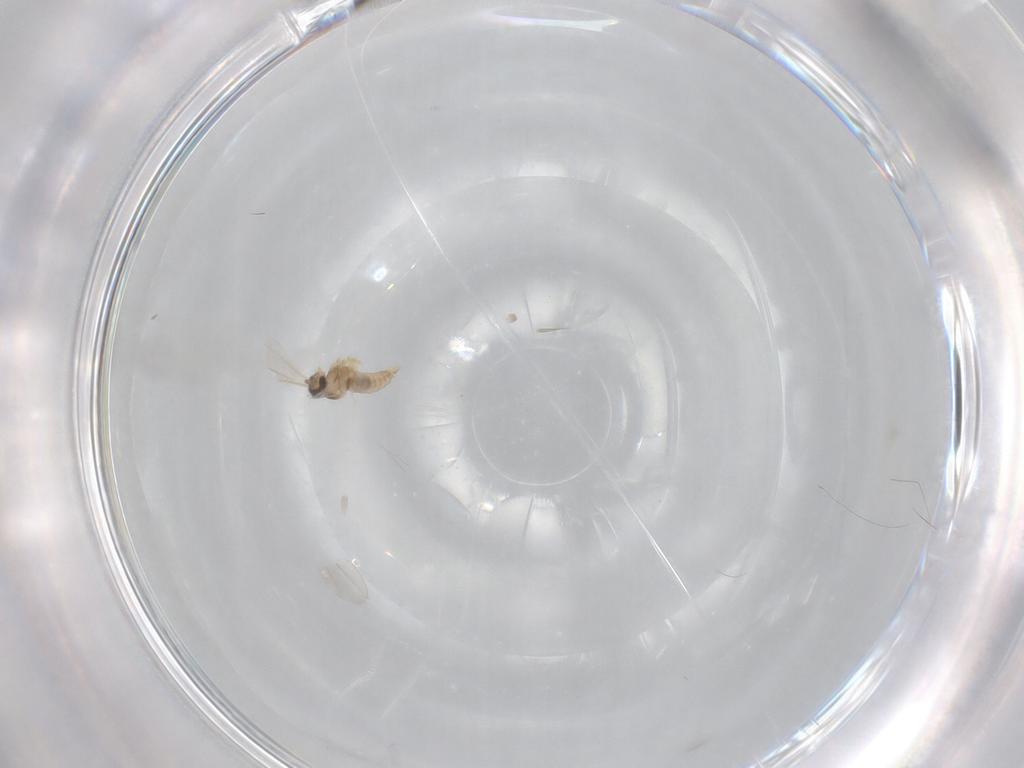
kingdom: Animalia
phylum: Arthropoda
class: Insecta
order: Diptera
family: Cecidomyiidae
